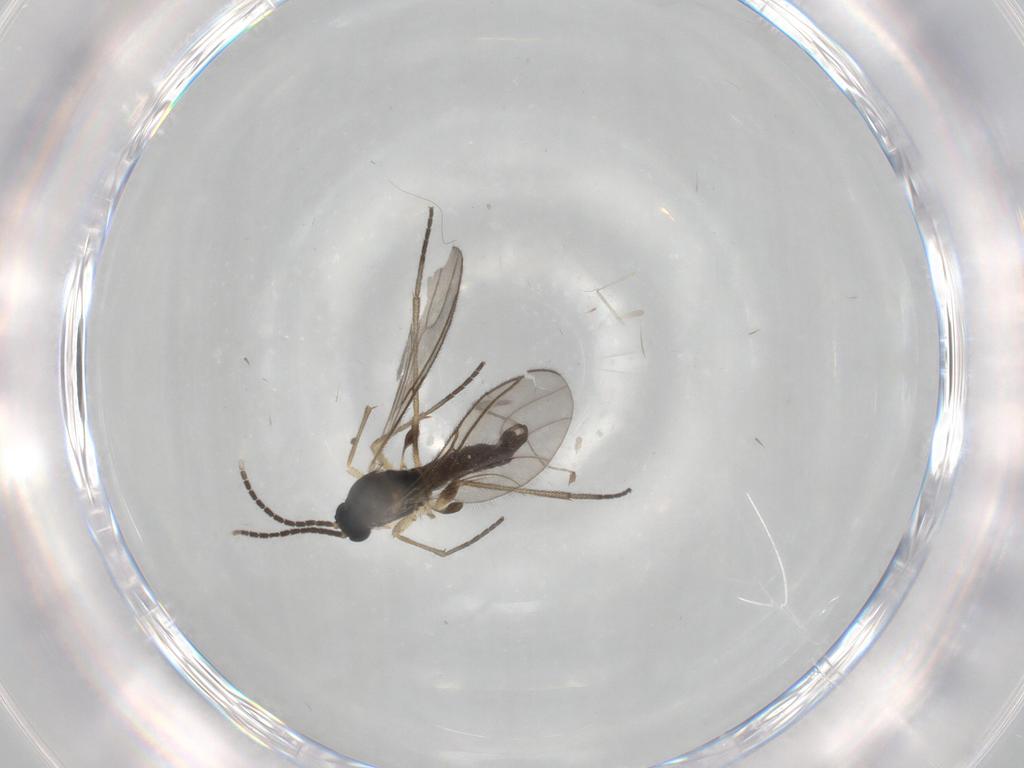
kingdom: Animalia
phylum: Arthropoda
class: Insecta
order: Diptera
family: Sciaridae
